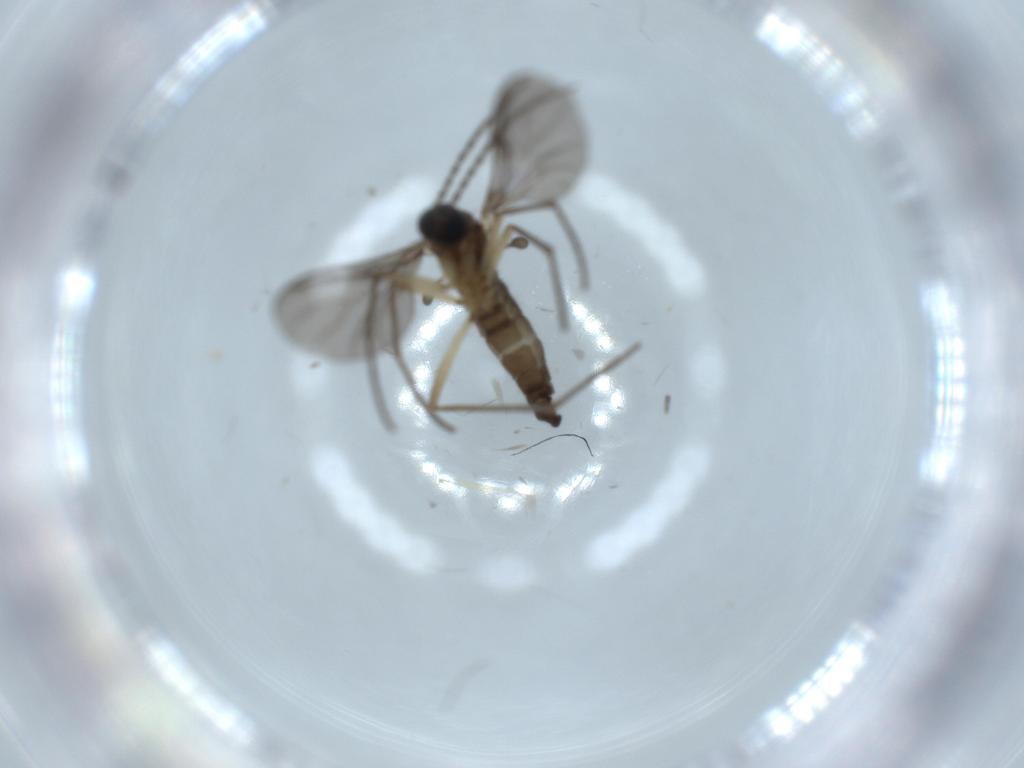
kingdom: Animalia
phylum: Arthropoda
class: Insecta
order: Diptera
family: Sciaridae
